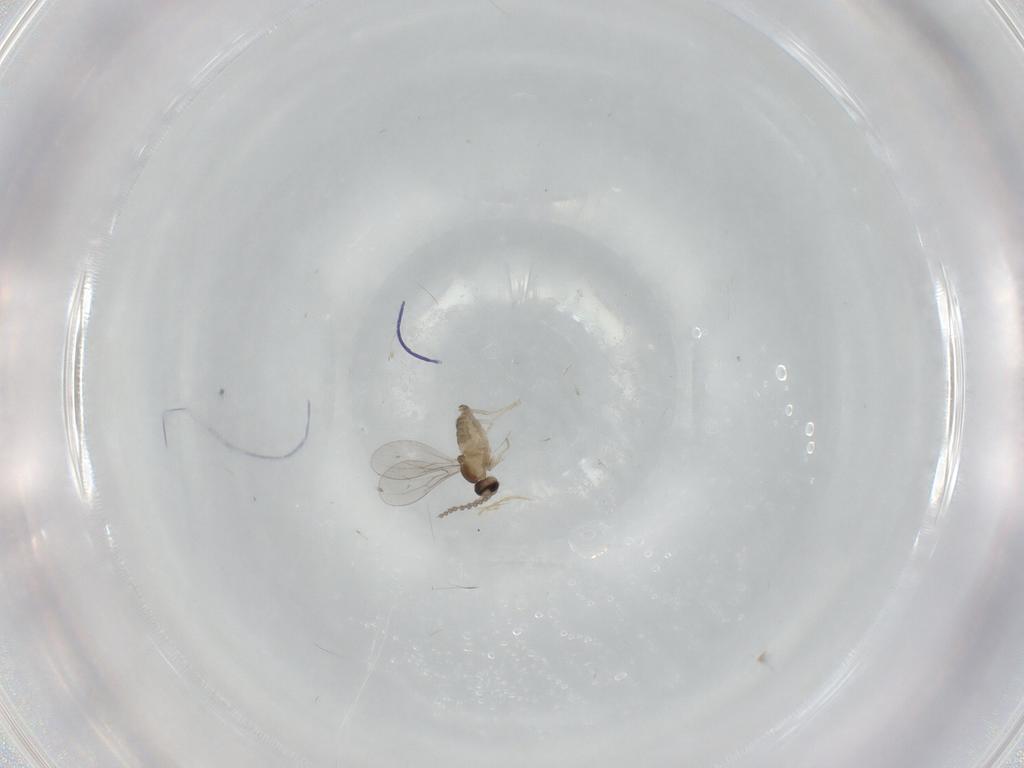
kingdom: Animalia
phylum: Arthropoda
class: Insecta
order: Diptera
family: Cecidomyiidae
